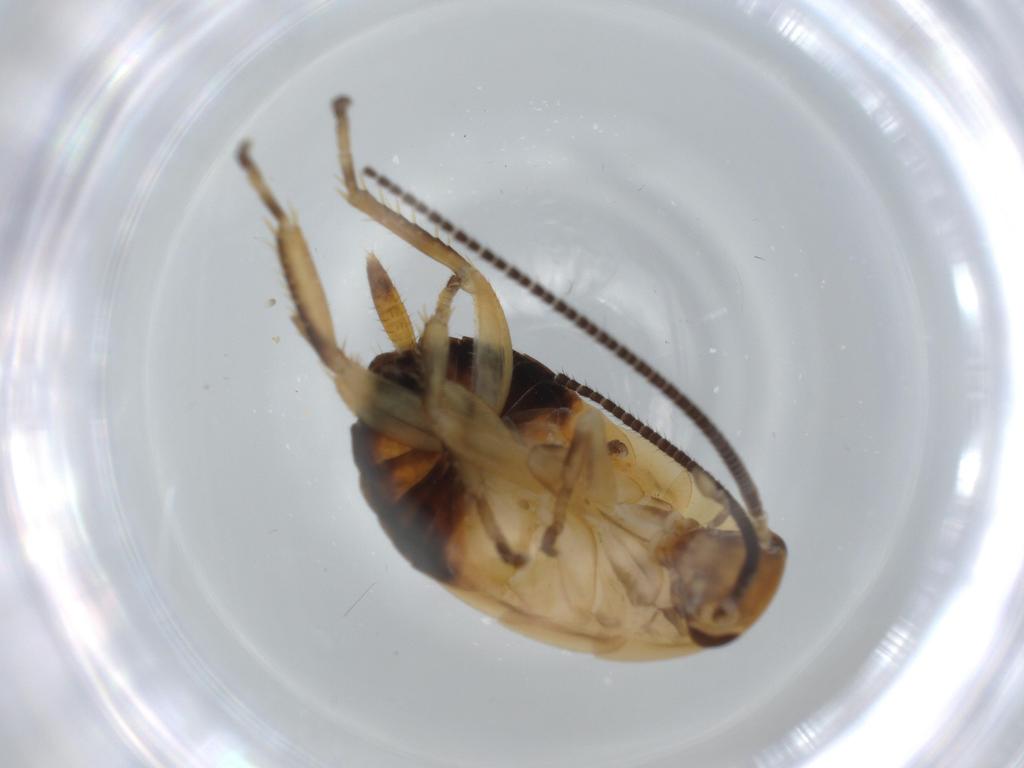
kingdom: Animalia
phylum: Arthropoda
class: Insecta
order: Blattodea
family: Ectobiidae
